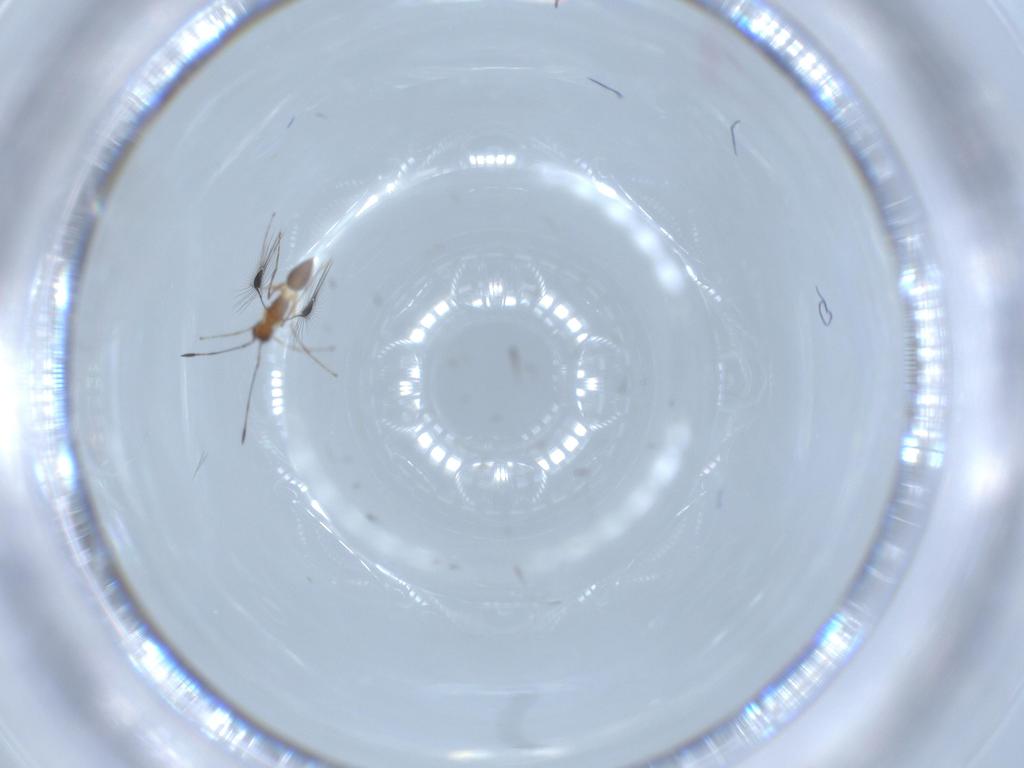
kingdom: Animalia
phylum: Arthropoda
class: Insecta
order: Hymenoptera
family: Mymaridae
